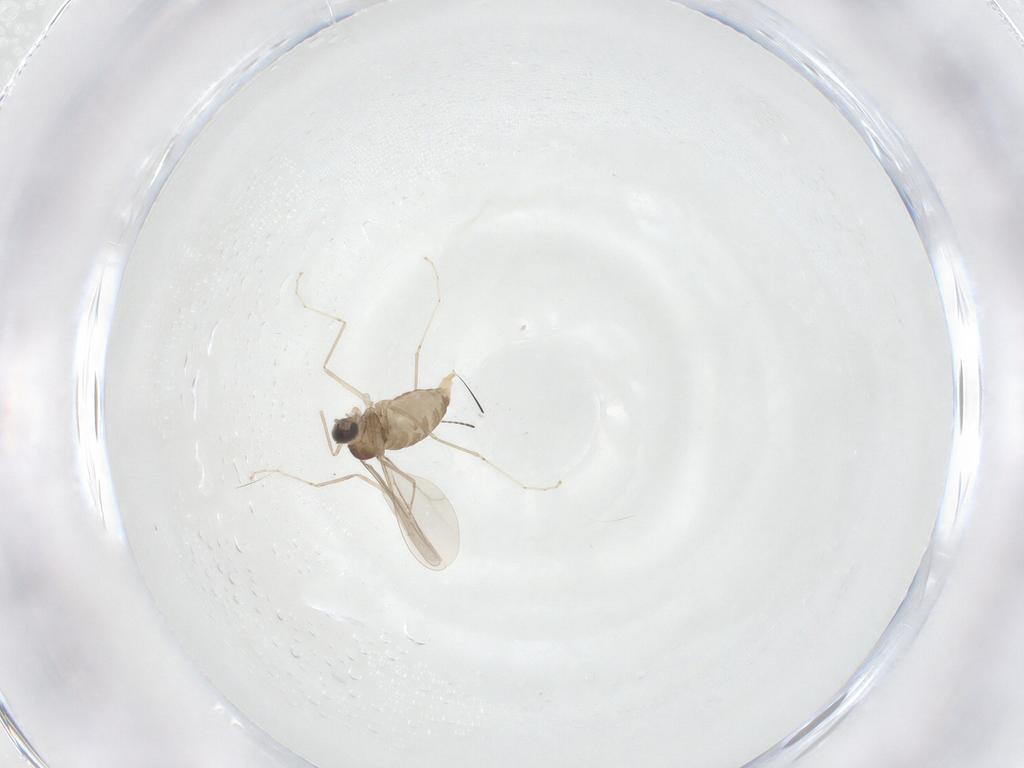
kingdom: Animalia
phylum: Arthropoda
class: Insecta
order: Diptera
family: Cecidomyiidae
